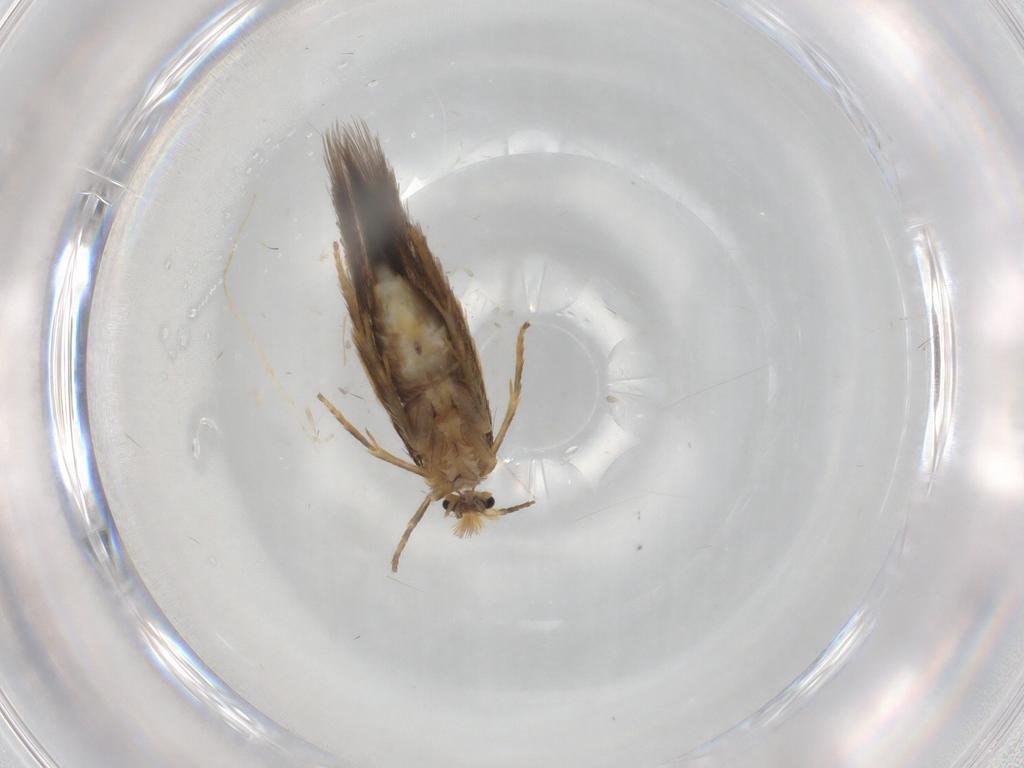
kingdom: Animalia
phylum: Arthropoda
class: Insecta
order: Lepidoptera
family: Nepticulidae
